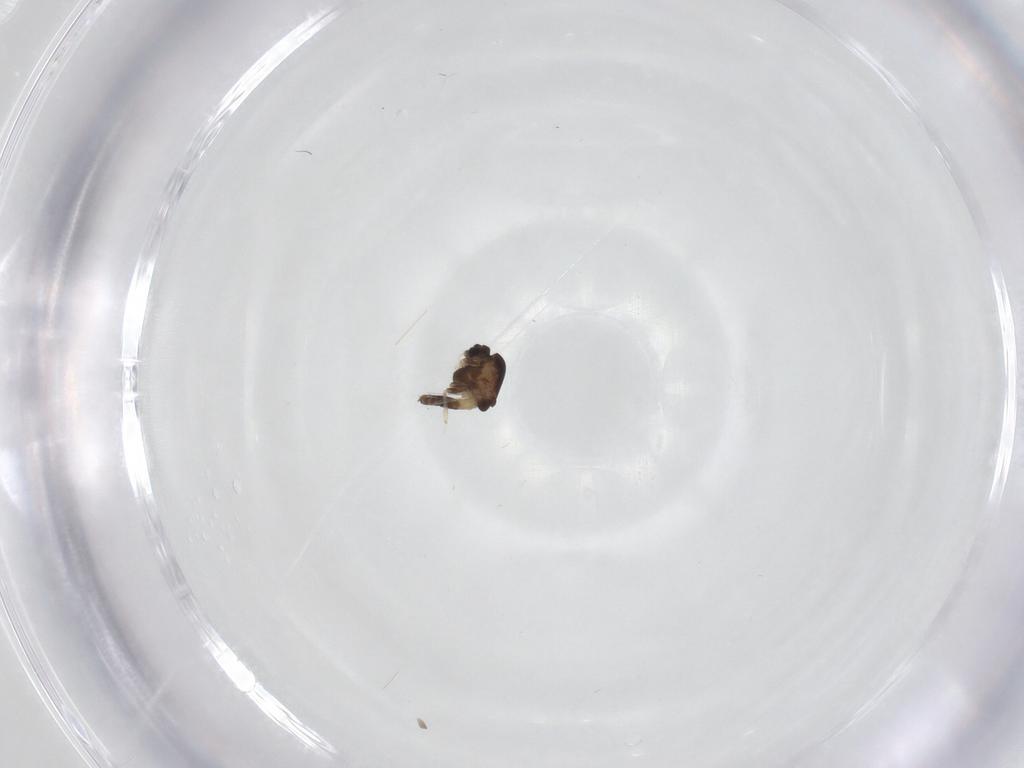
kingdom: Animalia
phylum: Arthropoda
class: Insecta
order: Diptera
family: Chironomidae
